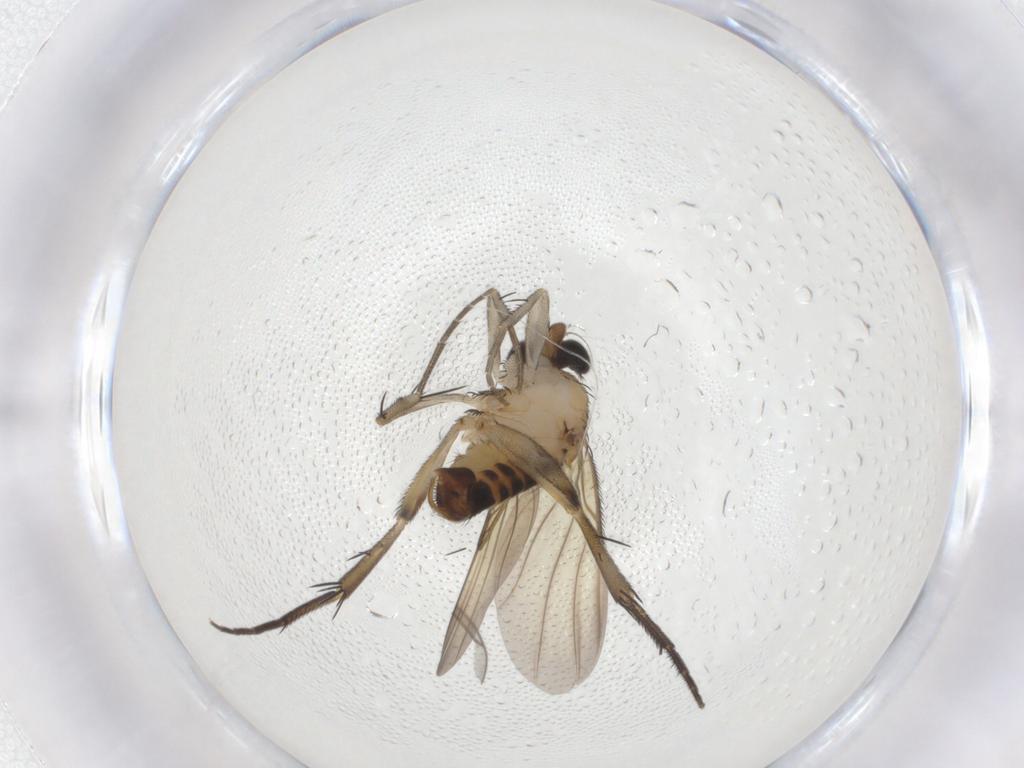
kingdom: Animalia
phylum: Arthropoda
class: Insecta
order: Diptera
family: Phoridae
